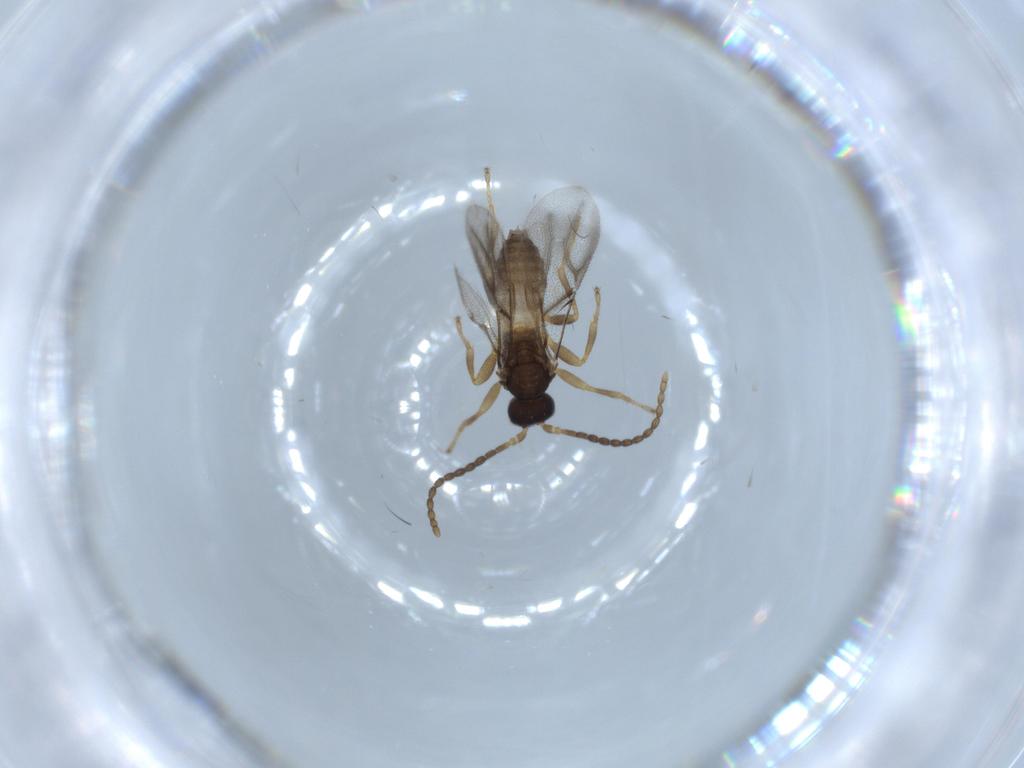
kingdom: Animalia
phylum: Arthropoda
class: Insecta
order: Hymenoptera
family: Braconidae
